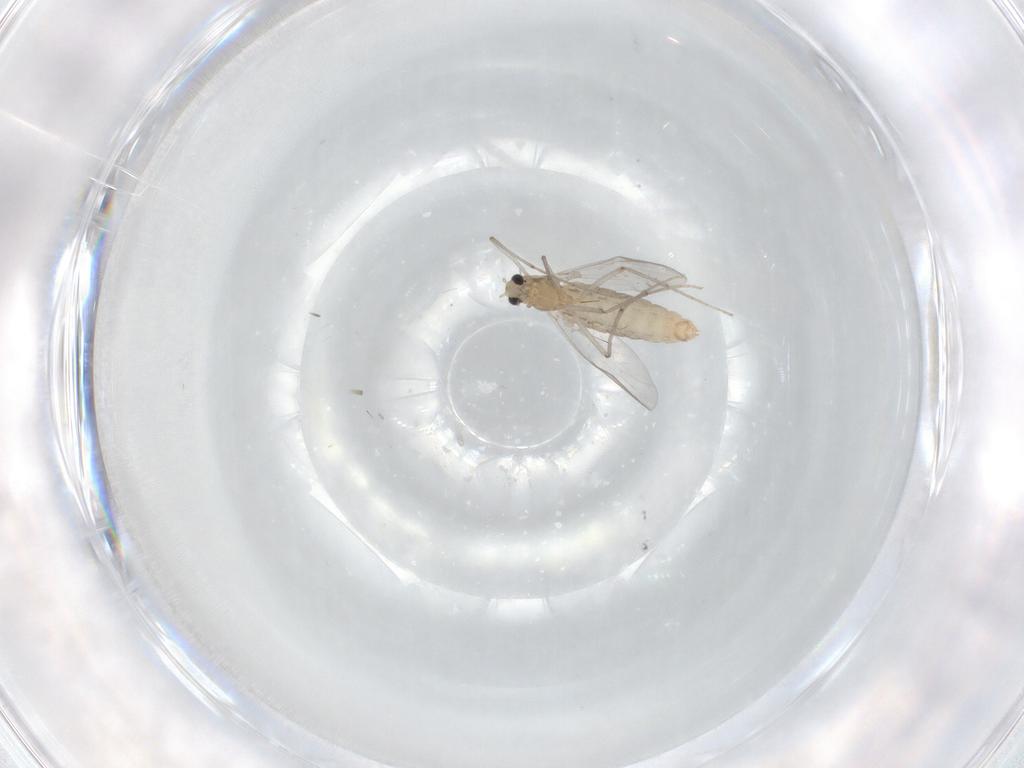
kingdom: Animalia
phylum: Arthropoda
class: Insecta
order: Diptera
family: Chironomidae
